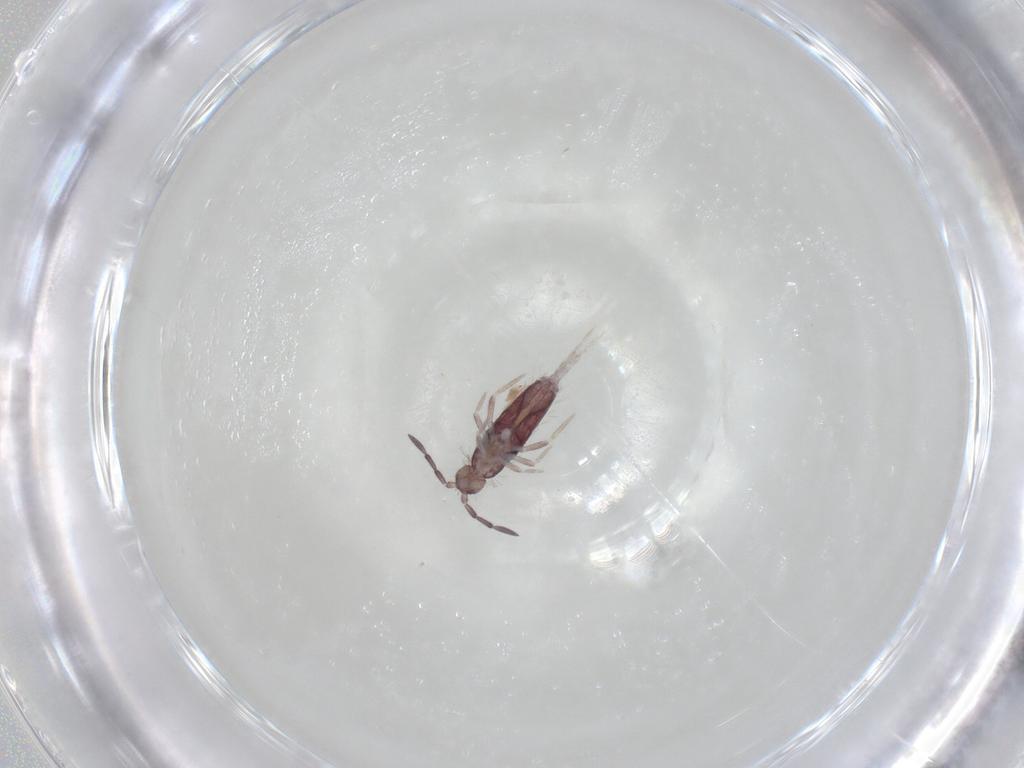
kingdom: Animalia
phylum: Arthropoda
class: Collembola
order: Entomobryomorpha
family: Entomobryidae
